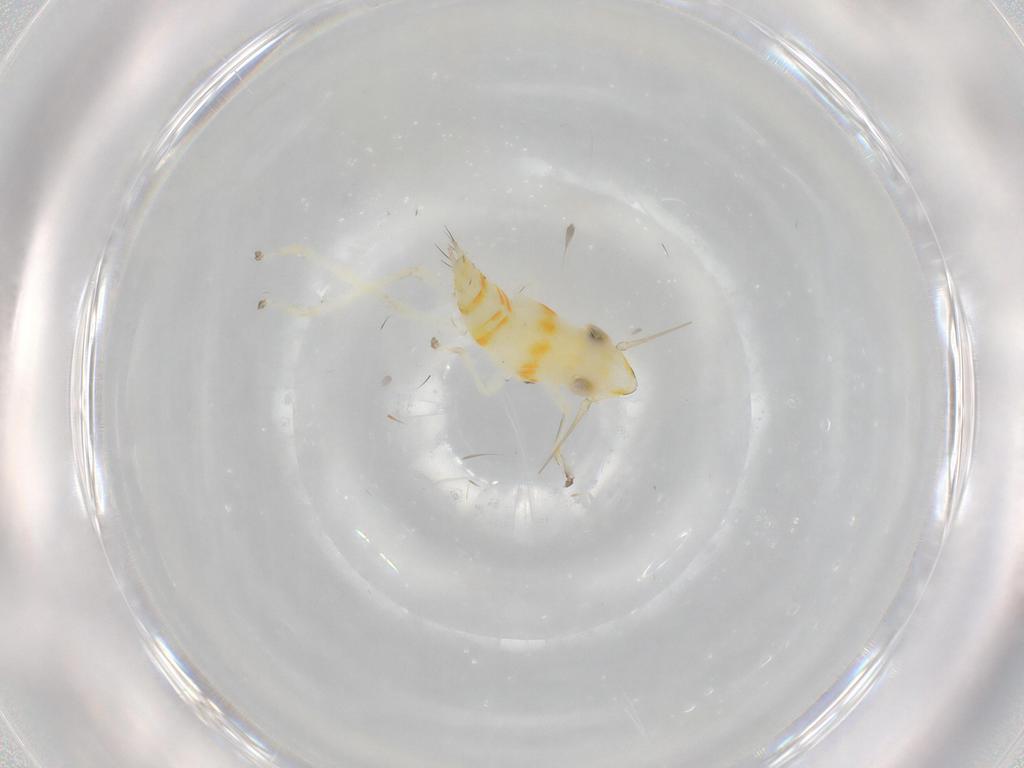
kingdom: Animalia
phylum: Arthropoda
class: Insecta
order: Hemiptera
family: Cicadellidae
